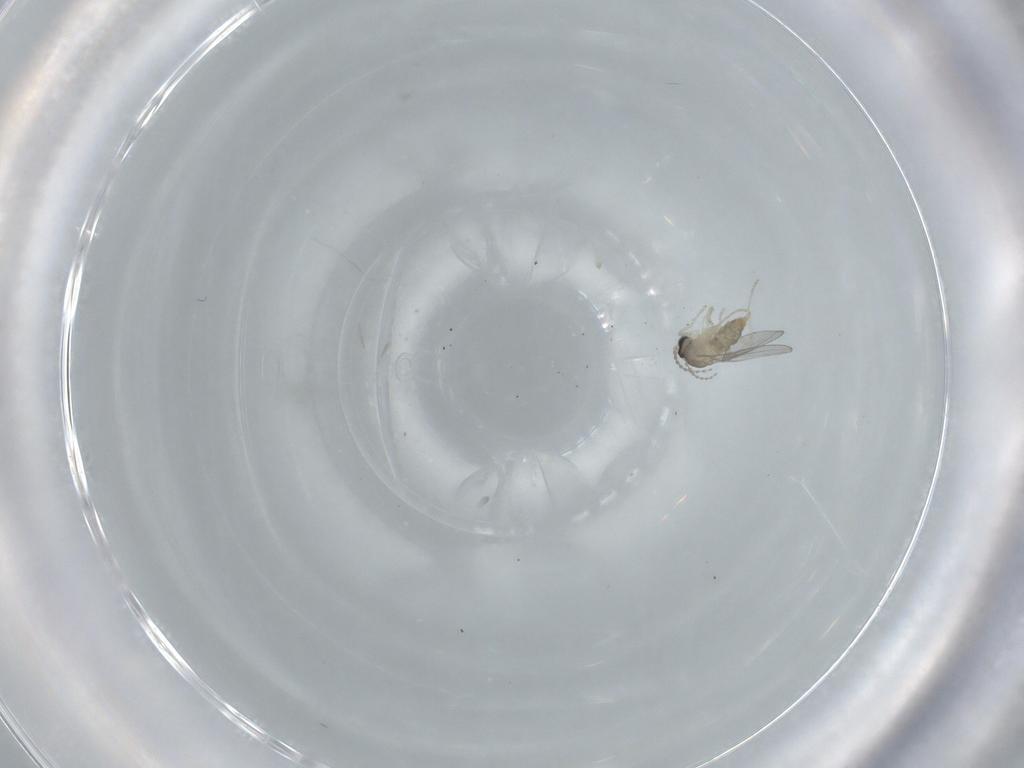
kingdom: Animalia
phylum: Arthropoda
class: Insecta
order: Diptera
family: Cecidomyiidae
